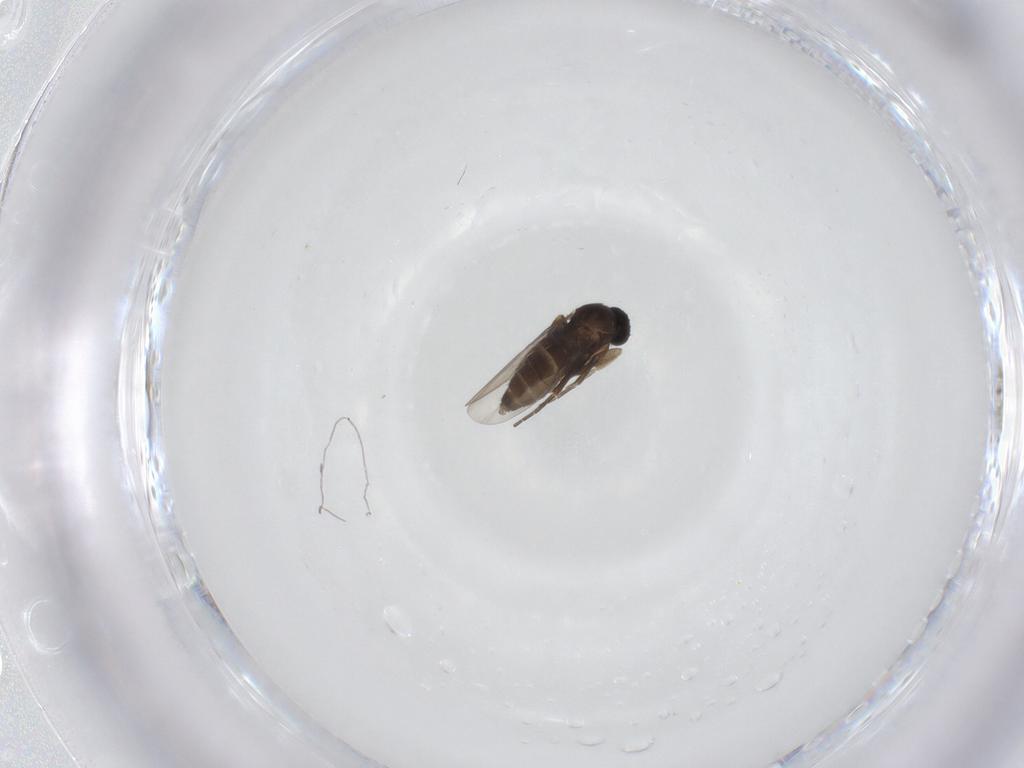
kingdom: Animalia
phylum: Arthropoda
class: Insecta
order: Diptera
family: Phoridae
